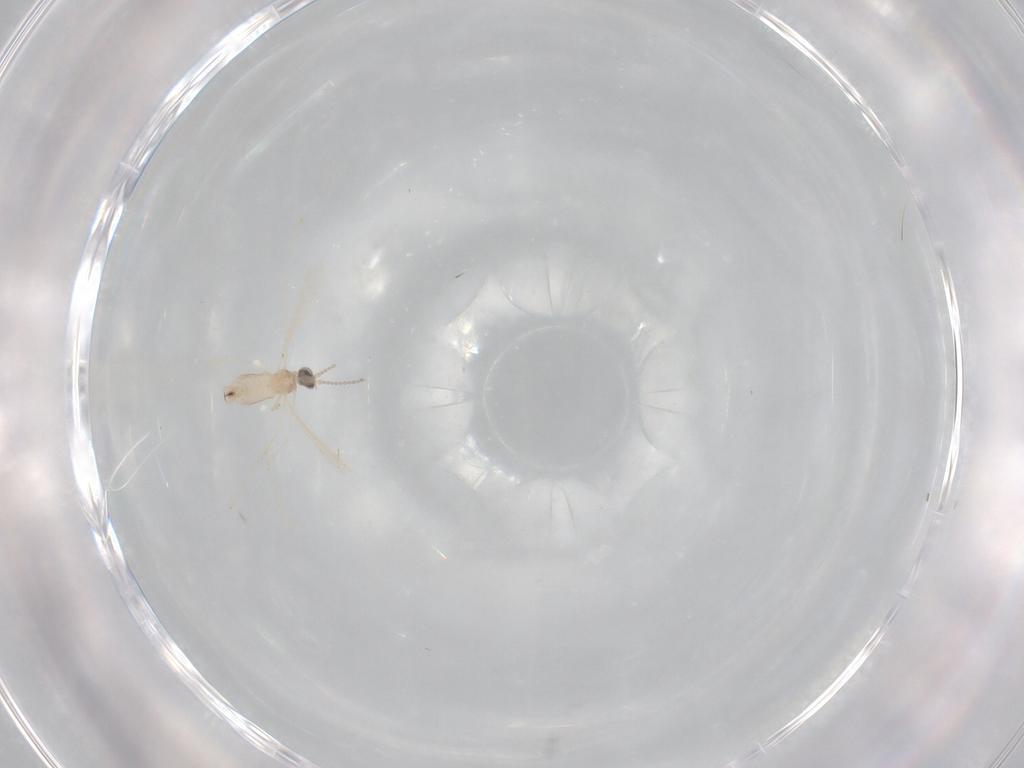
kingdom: Animalia
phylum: Arthropoda
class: Insecta
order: Diptera
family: Cecidomyiidae
